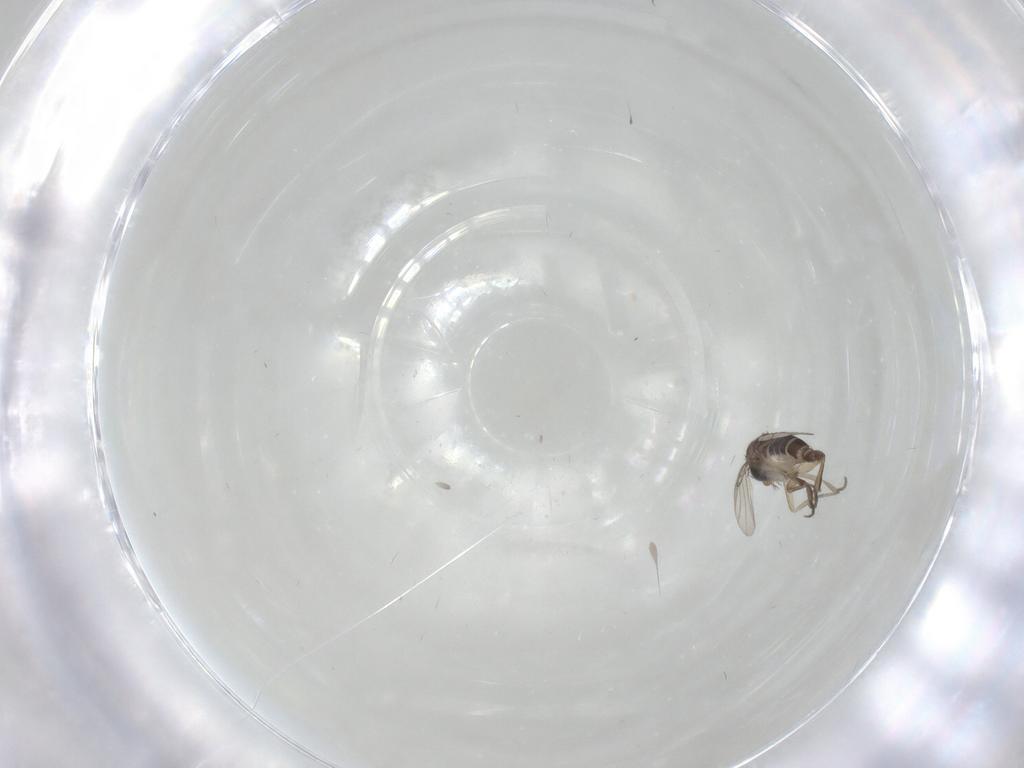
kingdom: Animalia
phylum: Arthropoda
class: Insecta
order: Diptera
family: Phoridae
